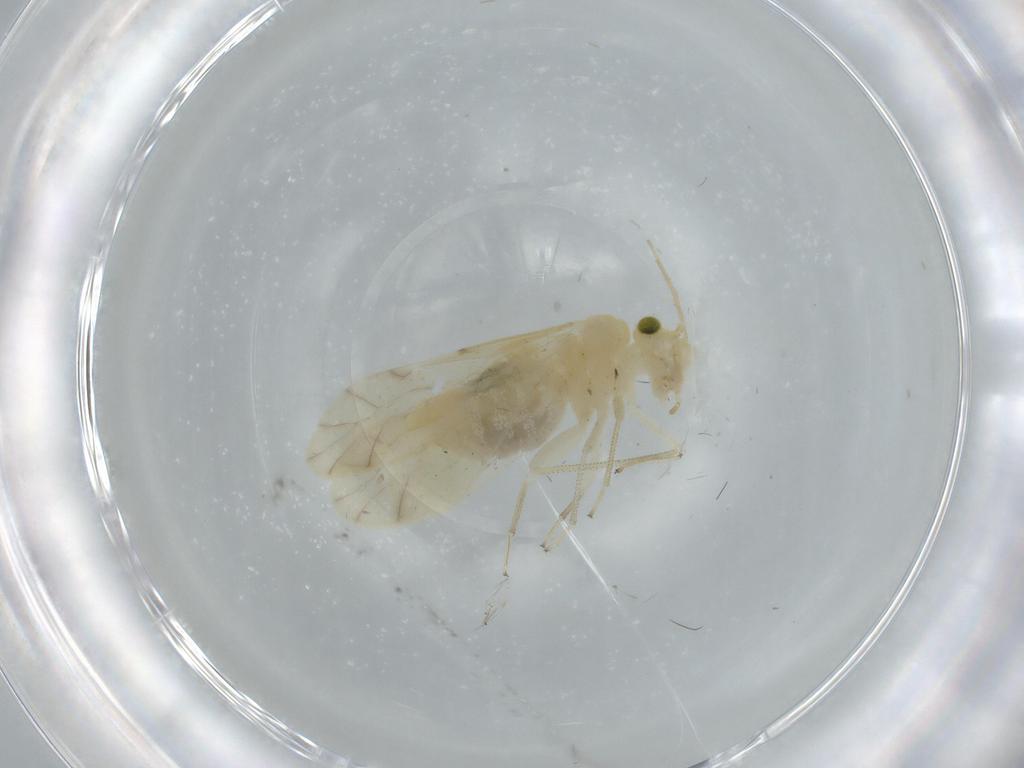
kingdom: Animalia
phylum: Arthropoda
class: Insecta
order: Psocodea
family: Caeciliusidae
